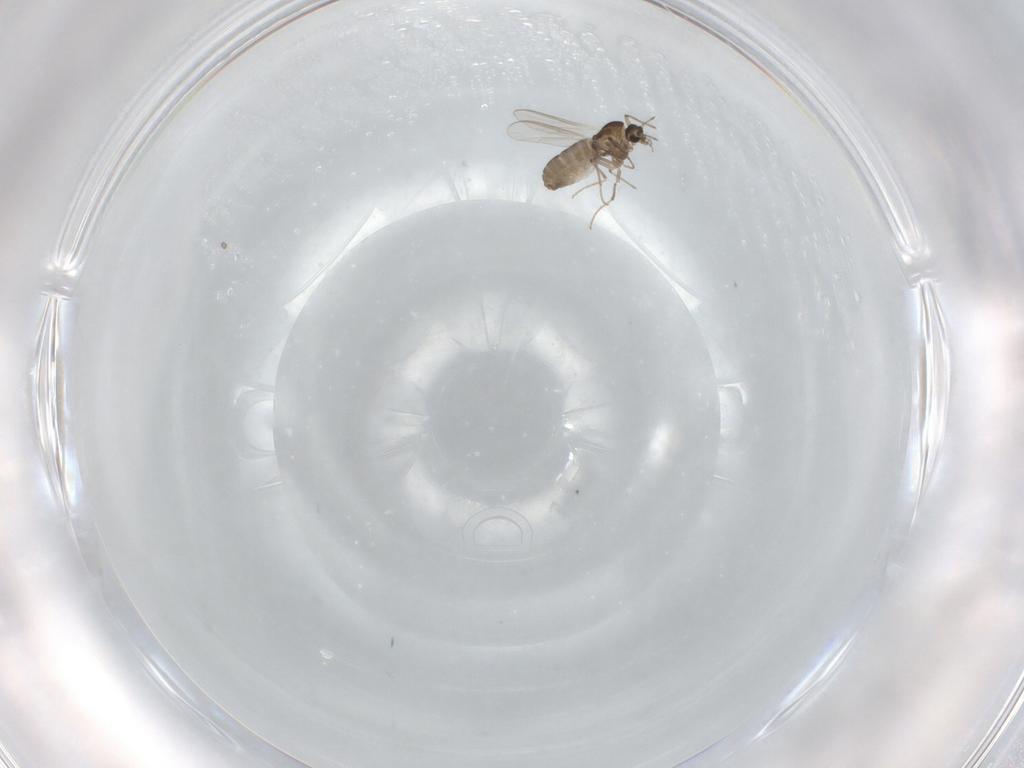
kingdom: Animalia
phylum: Arthropoda
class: Insecta
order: Diptera
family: Chironomidae
